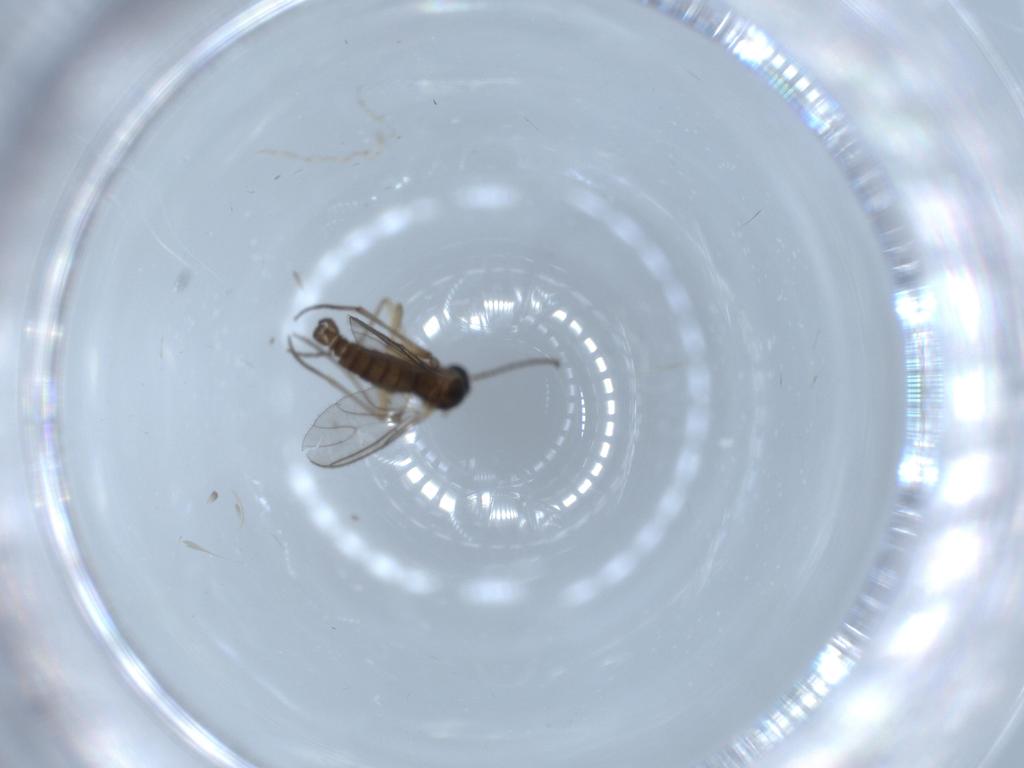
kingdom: Animalia
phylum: Arthropoda
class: Insecta
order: Diptera
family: Sciaridae
